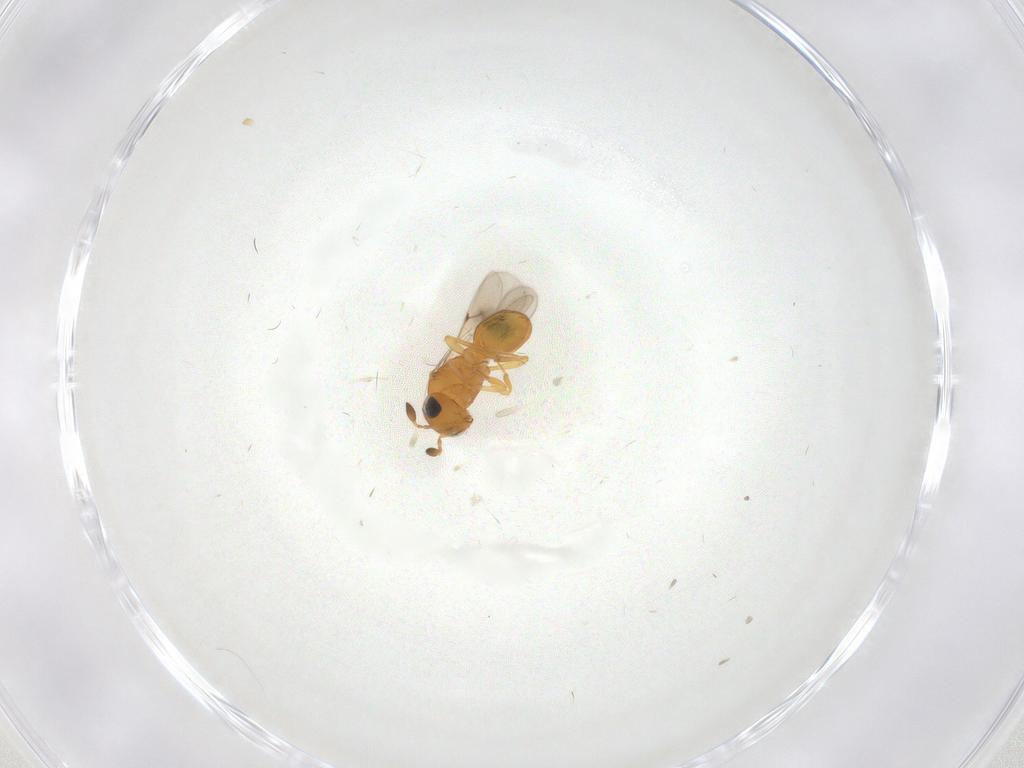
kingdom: Animalia
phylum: Arthropoda
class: Insecta
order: Hymenoptera
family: Scelionidae
